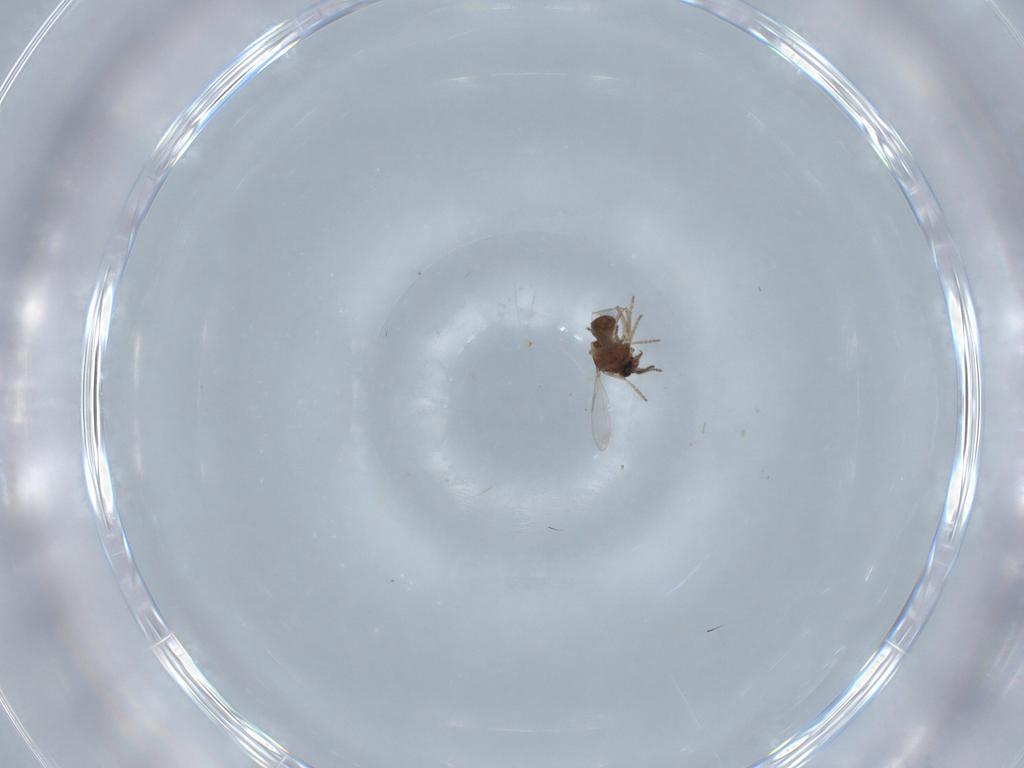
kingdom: Animalia
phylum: Arthropoda
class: Insecta
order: Diptera
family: Ceratopogonidae
